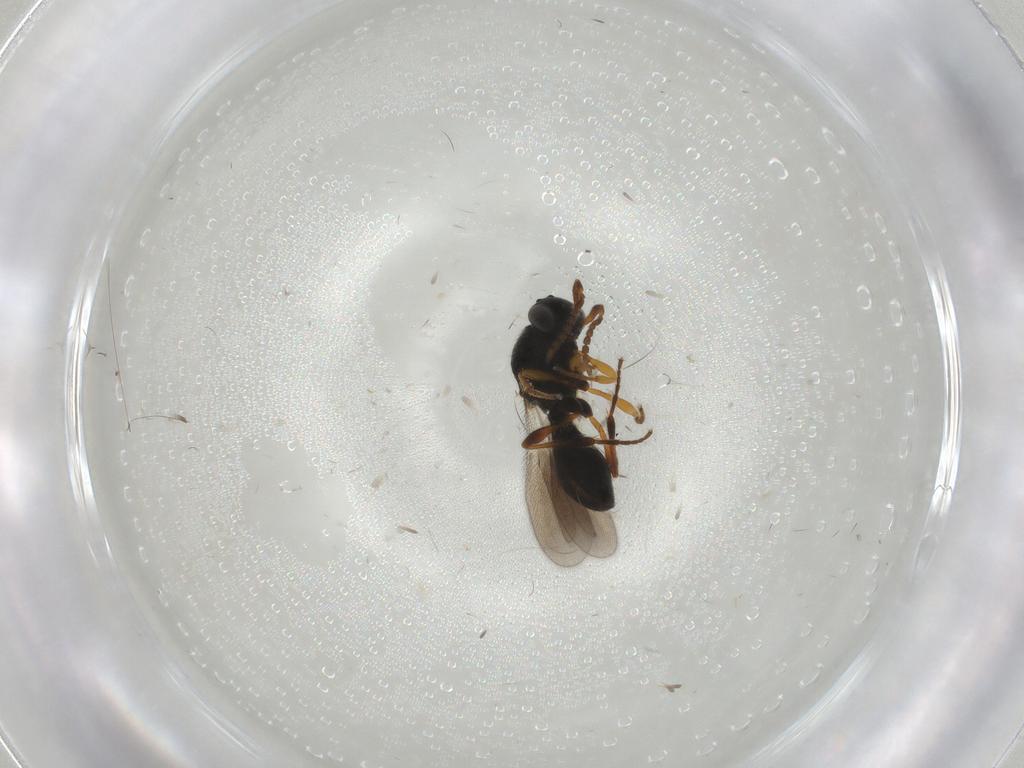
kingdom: Animalia
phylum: Arthropoda
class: Insecta
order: Hymenoptera
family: Platygastridae
